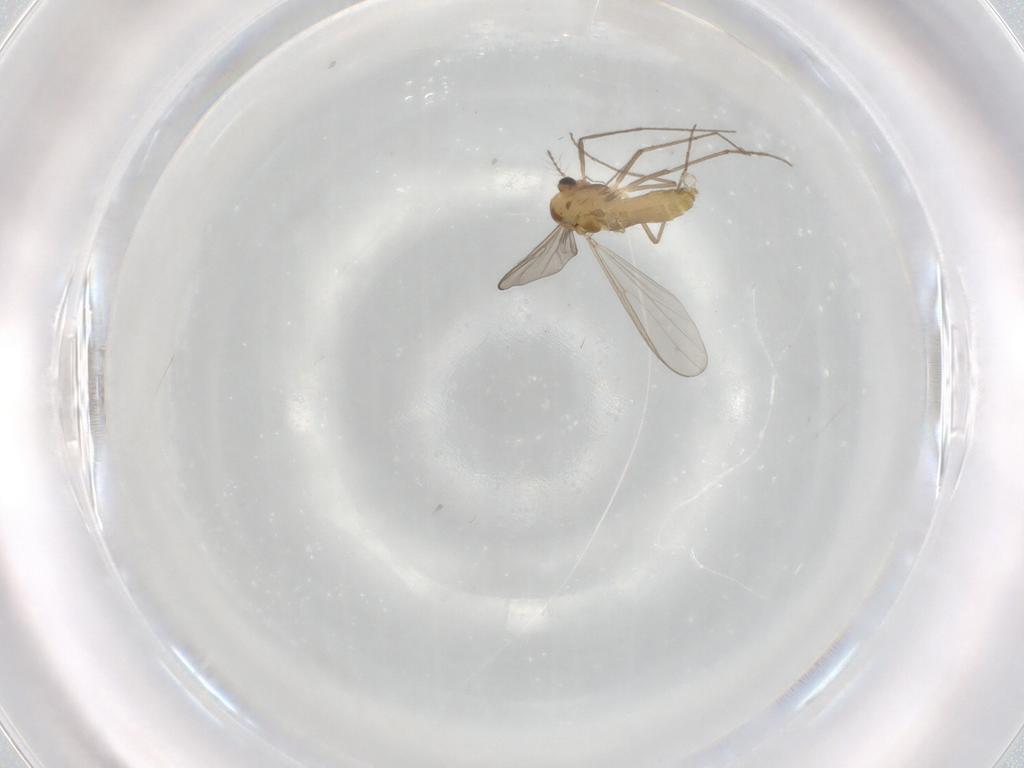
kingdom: Animalia
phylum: Arthropoda
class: Insecta
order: Diptera
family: Chironomidae
